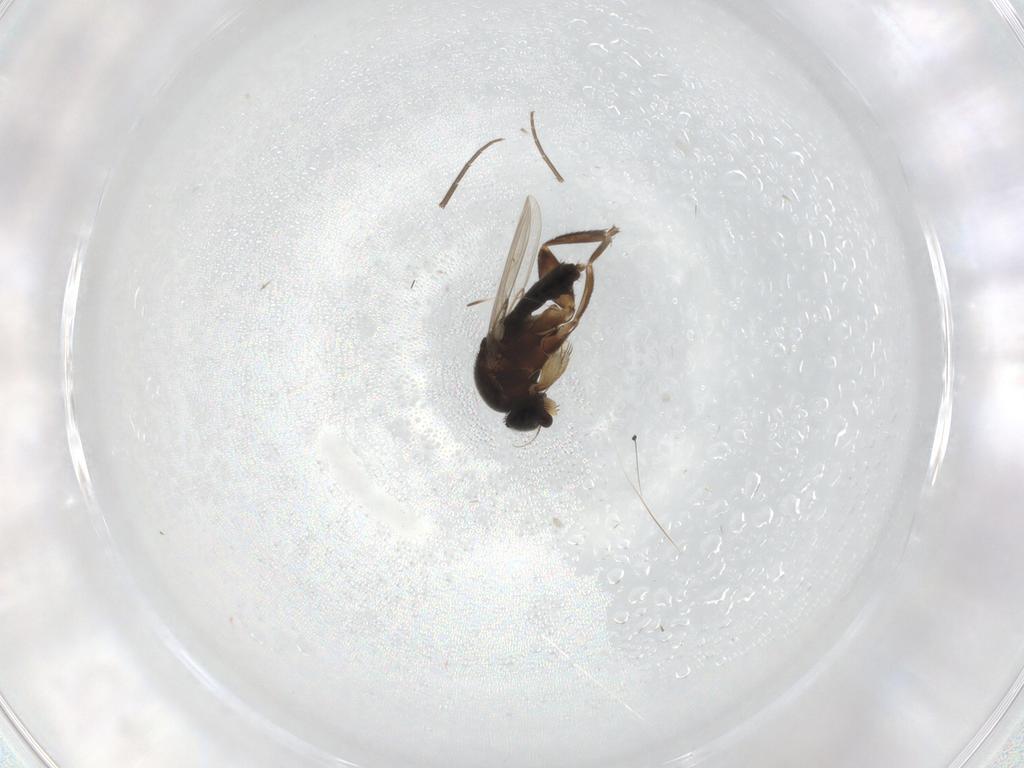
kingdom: Animalia
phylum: Arthropoda
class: Insecta
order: Diptera
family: Phoridae
